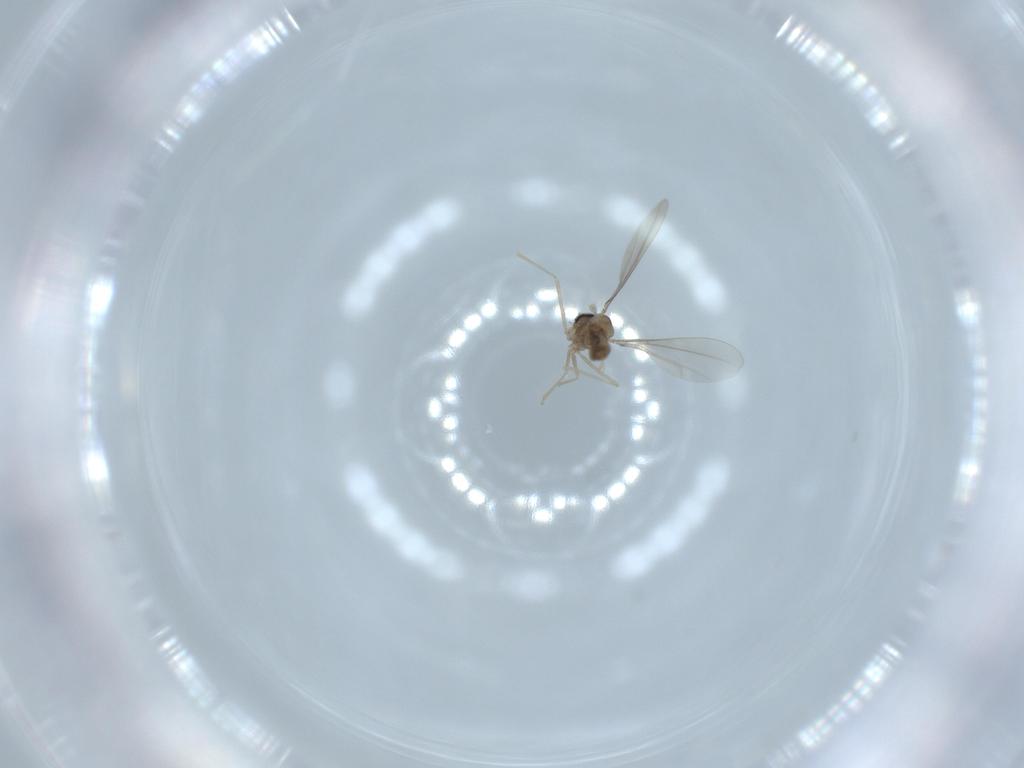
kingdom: Animalia
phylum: Arthropoda
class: Insecta
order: Diptera
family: Cecidomyiidae
